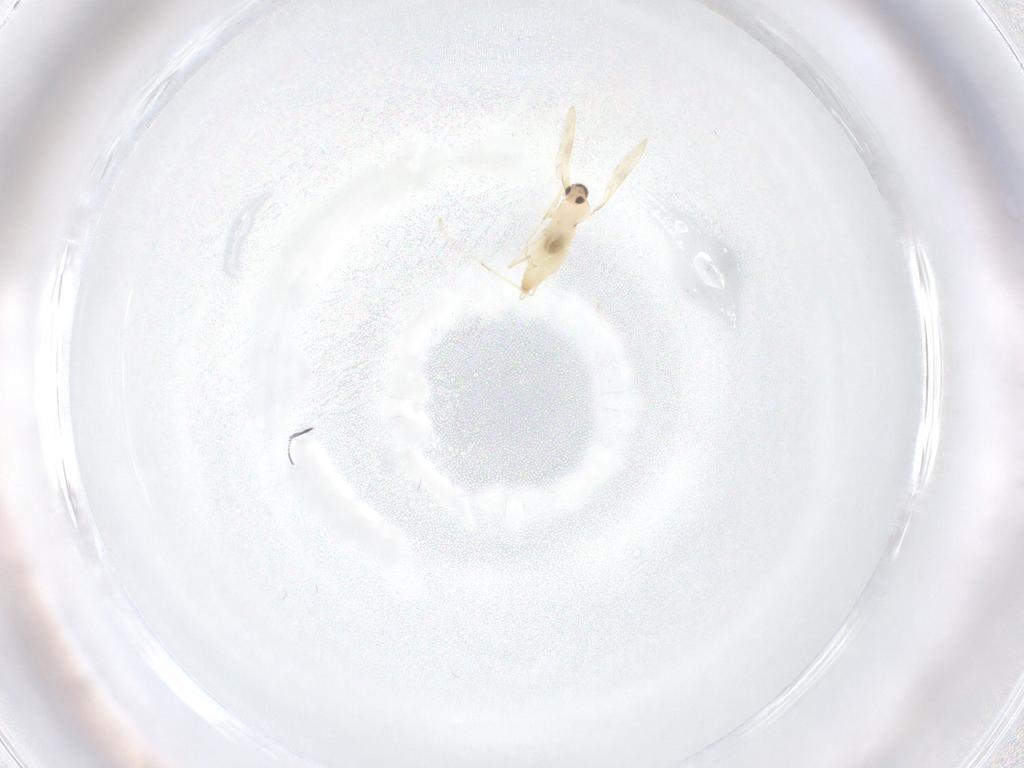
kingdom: Animalia
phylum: Arthropoda
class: Insecta
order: Diptera
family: Cecidomyiidae
